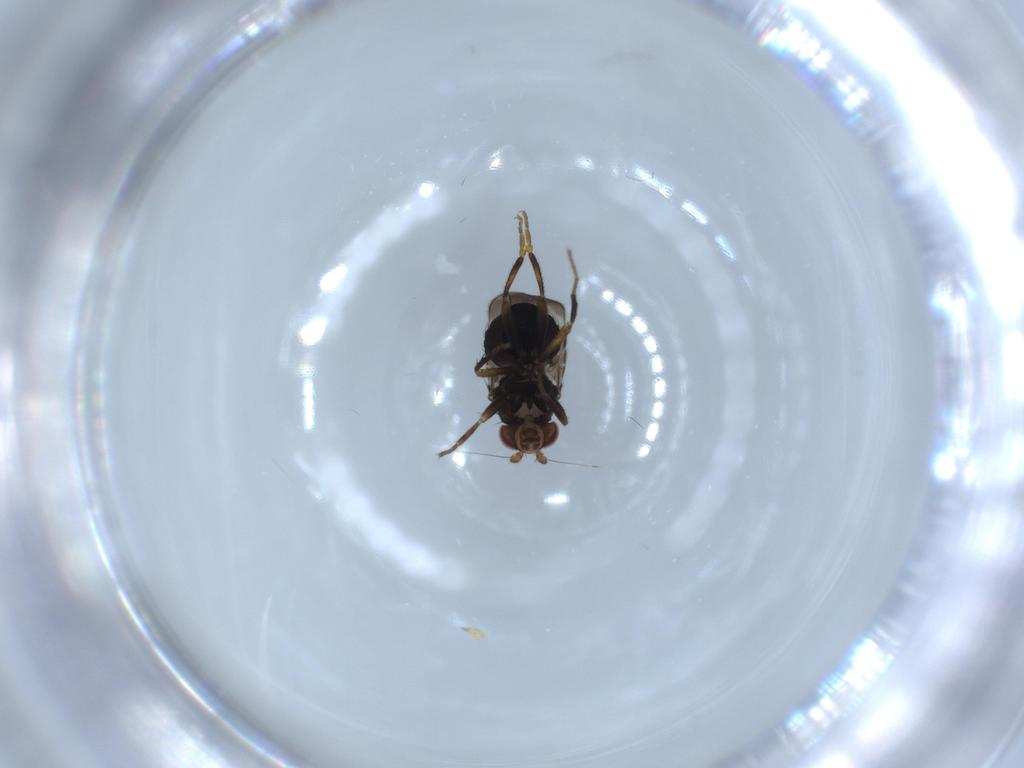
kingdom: Animalia
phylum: Arthropoda
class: Insecta
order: Diptera
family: Sphaeroceridae
